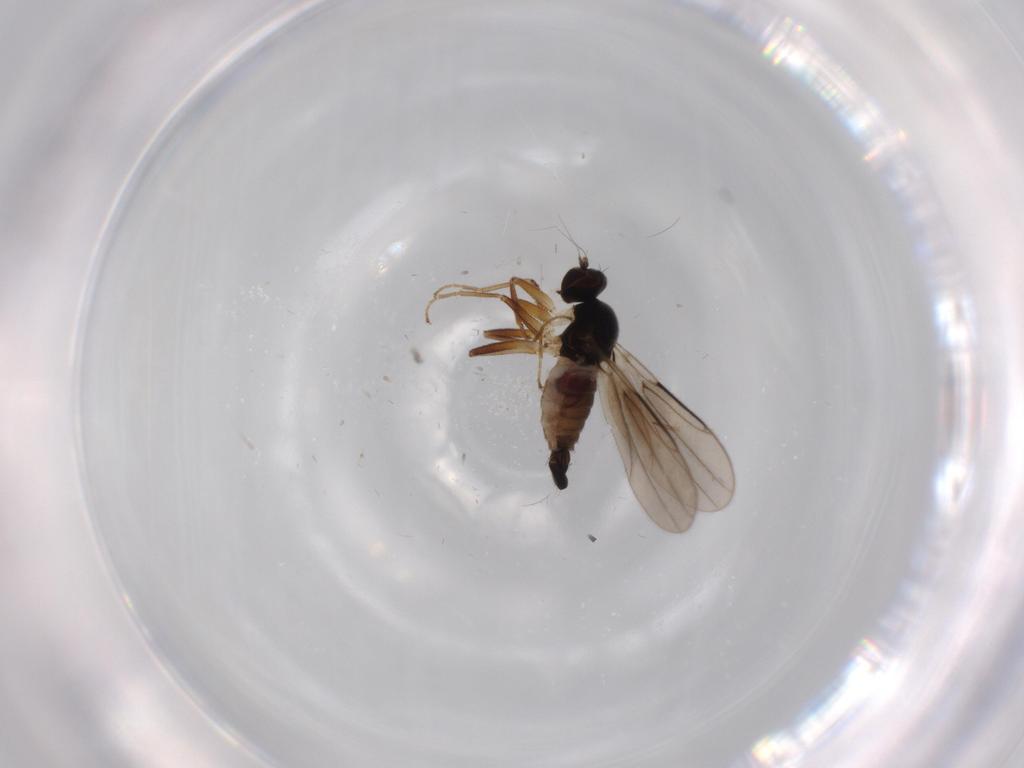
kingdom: Animalia
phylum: Arthropoda
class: Insecta
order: Diptera
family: Hybotidae
